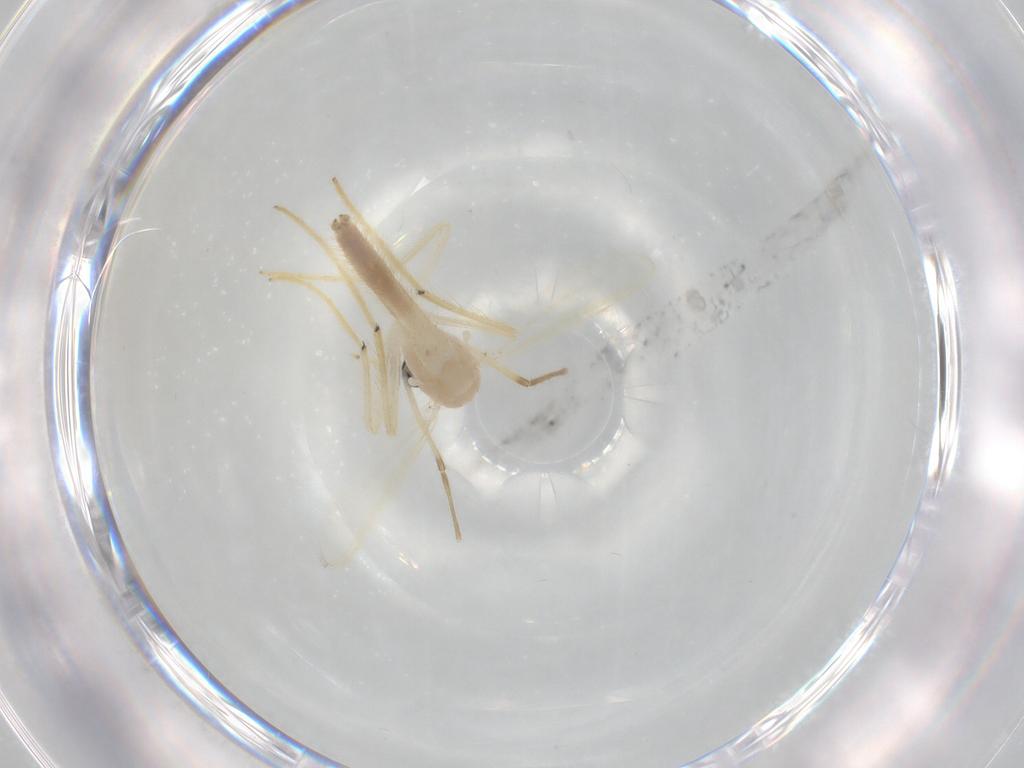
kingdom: Animalia
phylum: Arthropoda
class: Insecta
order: Diptera
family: Chironomidae
